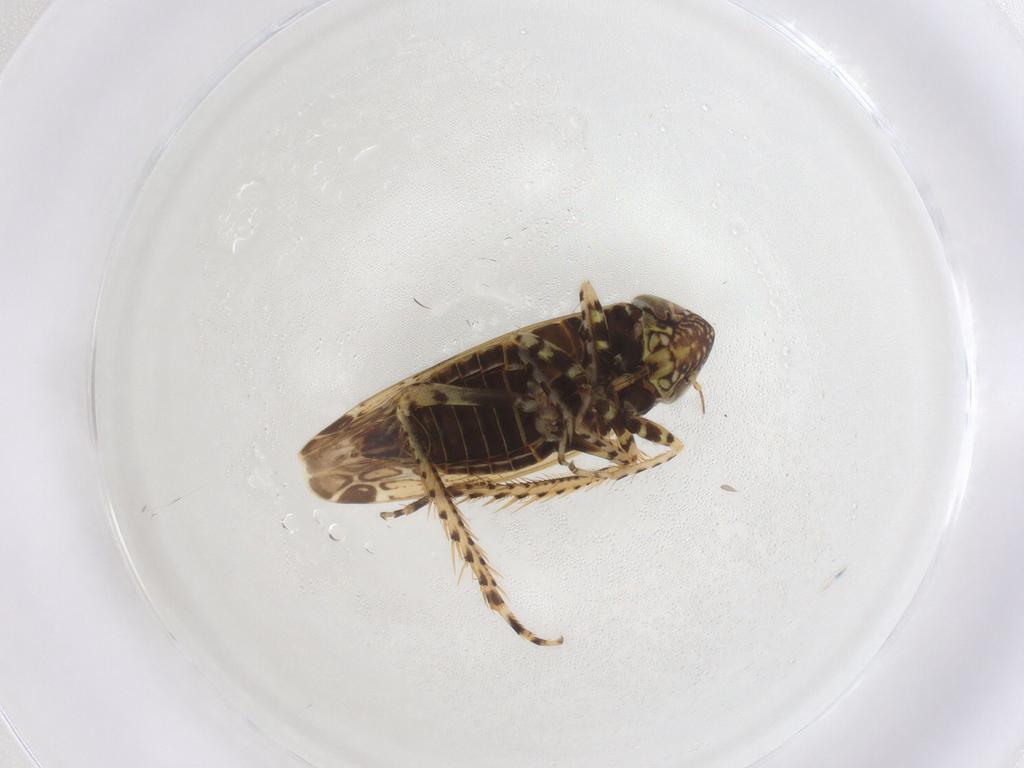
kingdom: Animalia
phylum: Arthropoda
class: Insecta
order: Hemiptera
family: Cicadellidae
